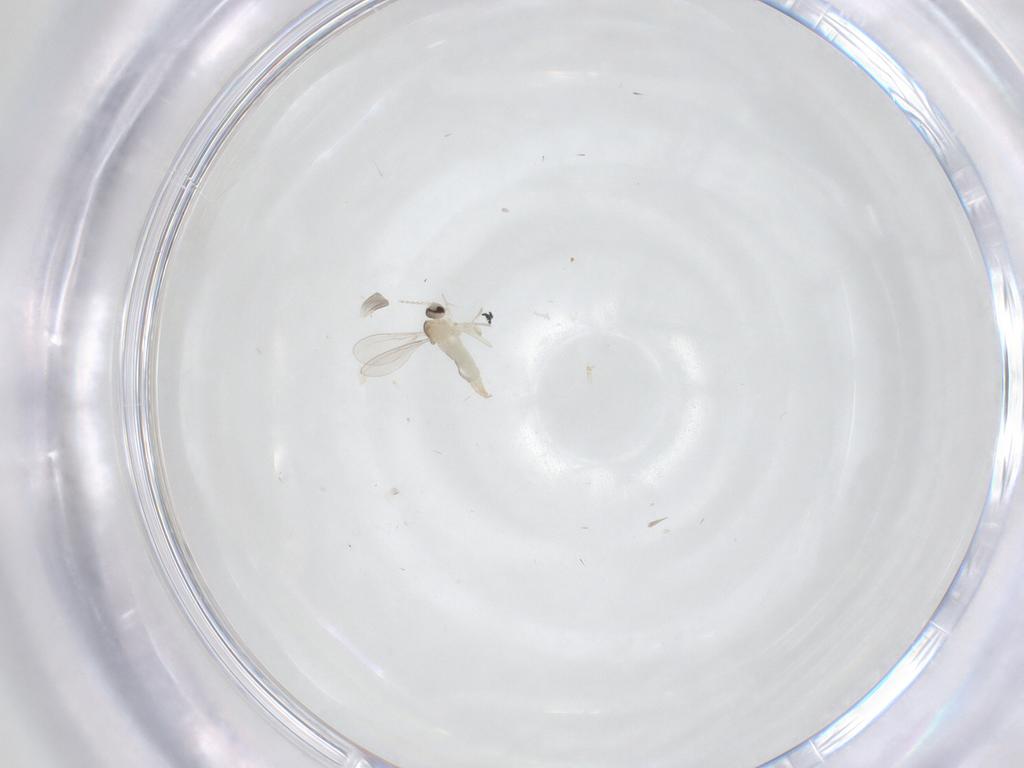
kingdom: Animalia
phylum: Arthropoda
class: Insecta
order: Diptera
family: Cecidomyiidae
